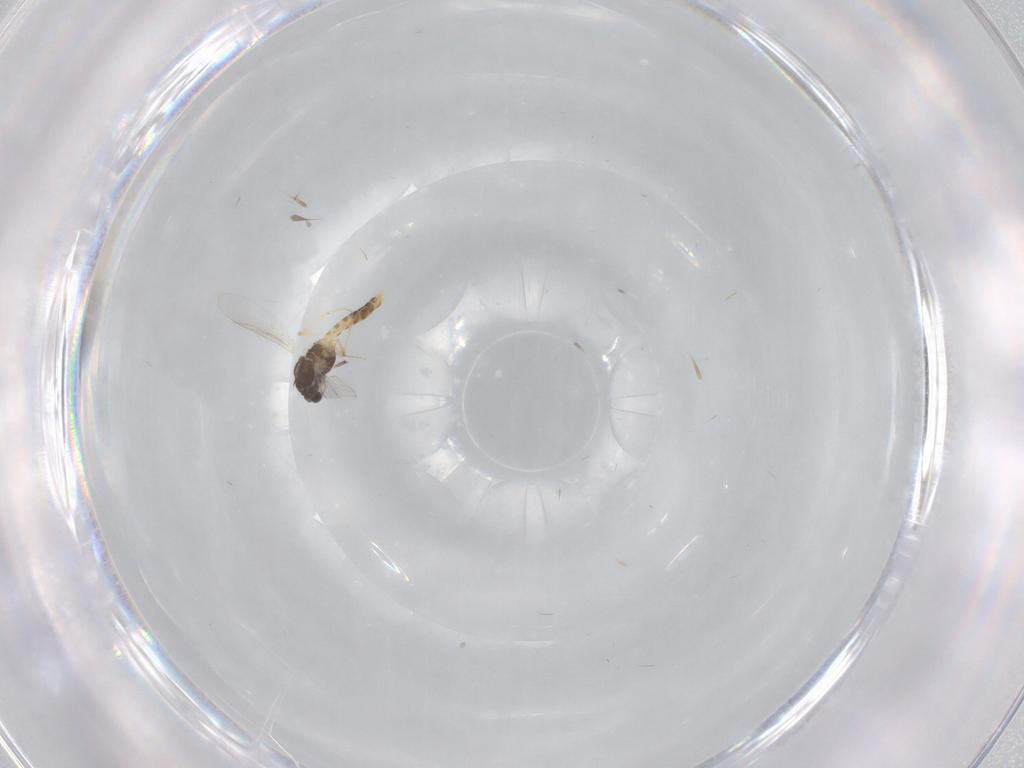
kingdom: Animalia
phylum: Arthropoda
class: Insecta
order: Diptera
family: Chironomidae
